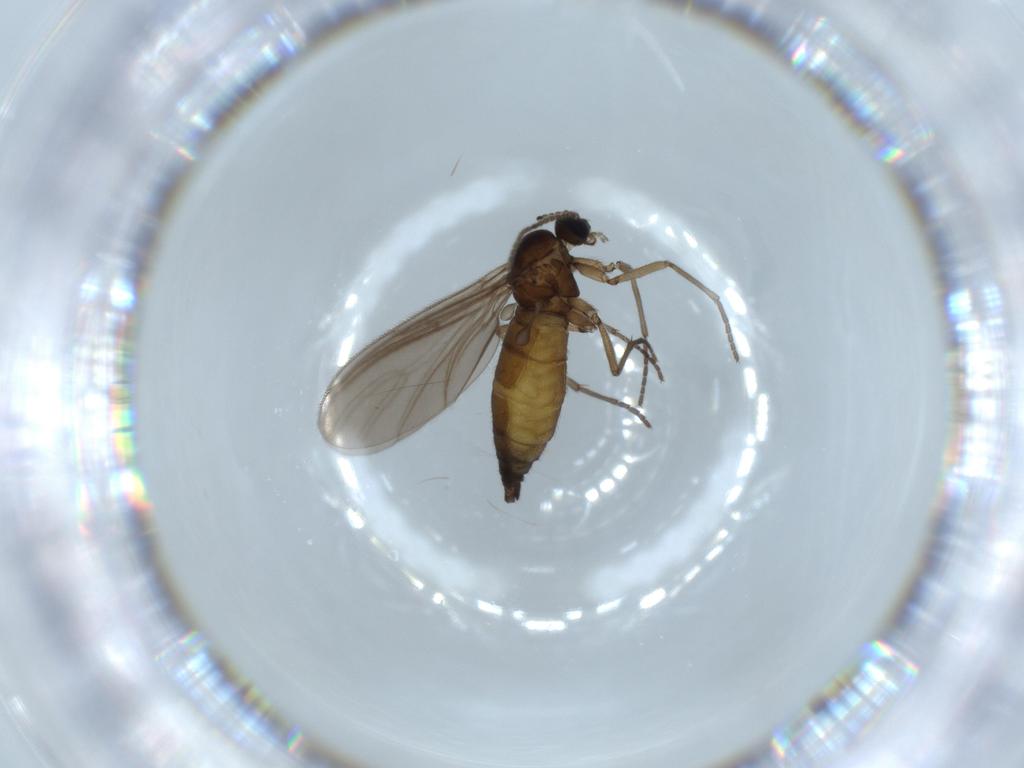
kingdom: Animalia
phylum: Arthropoda
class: Insecta
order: Diptera
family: Sciaridae
